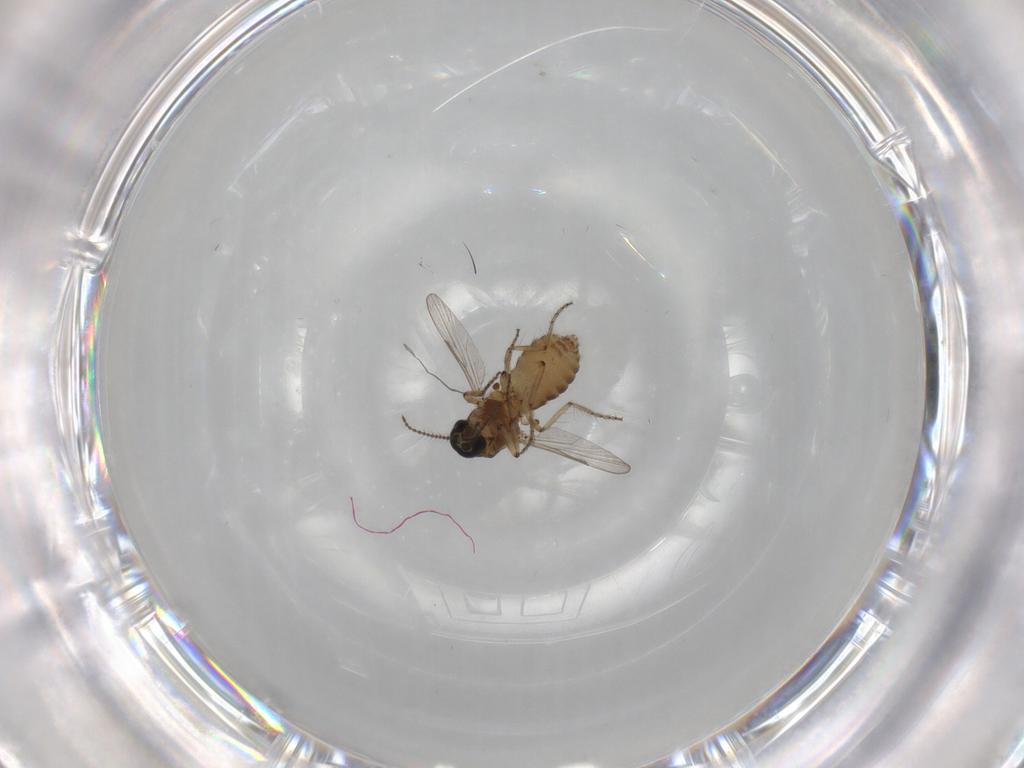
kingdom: Animalia
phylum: Arthropoda
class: Insecta
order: Diptera
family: Ceratopogonidae
